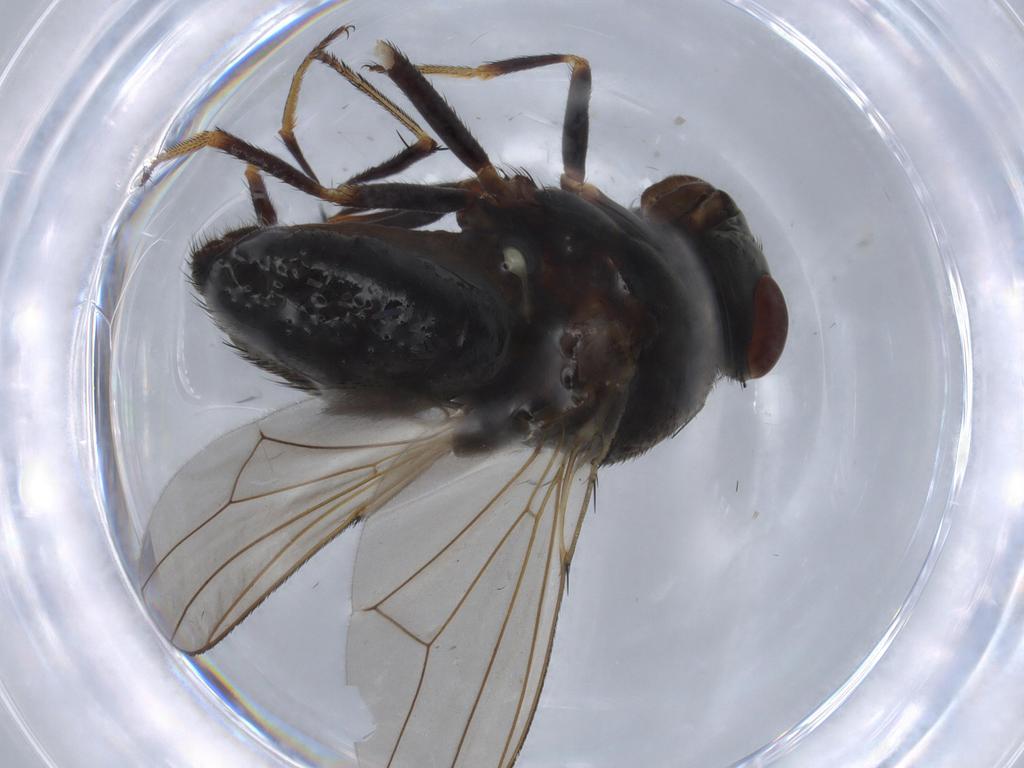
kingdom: Animalia
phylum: Arthropoda
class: Insecta
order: Diptera
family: Ephydridae
